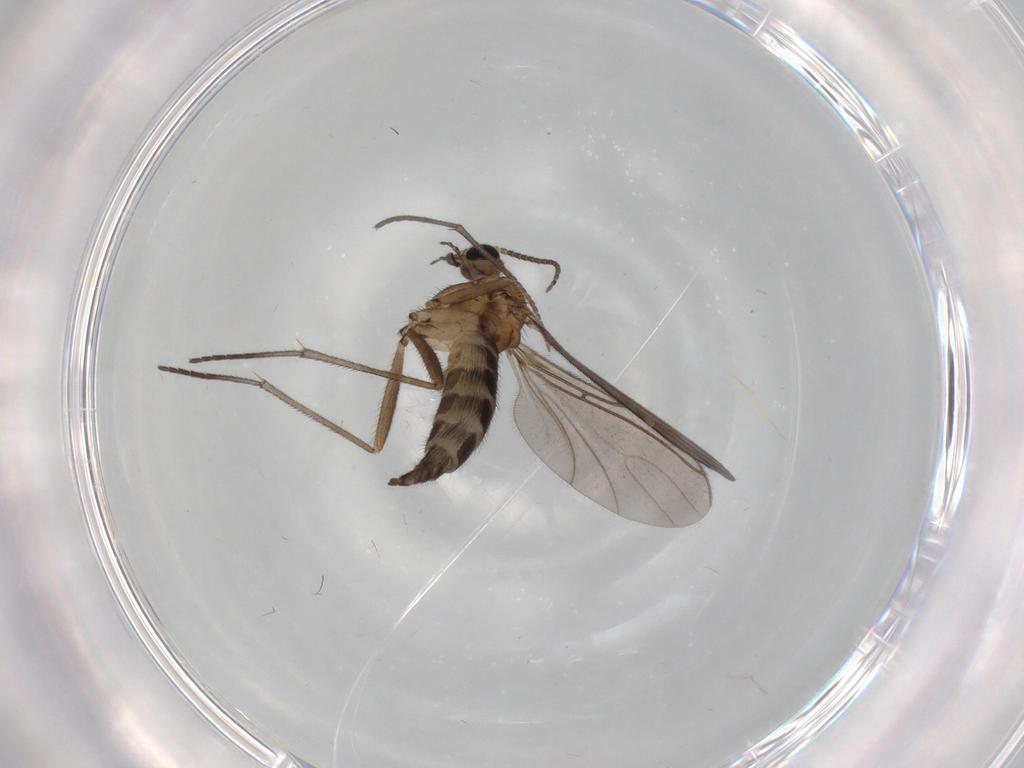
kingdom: Animalia
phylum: Arthropoda
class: Insecta
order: Diptera
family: Sciaridae
